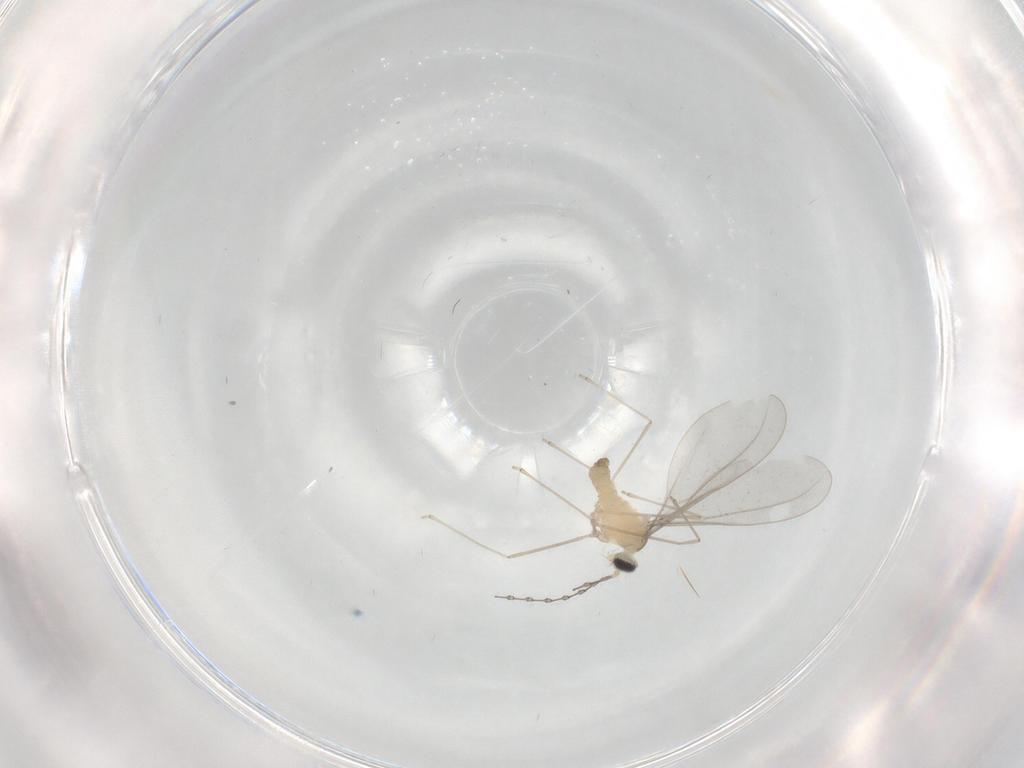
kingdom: Animalia
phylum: Arthropoda
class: Insecta
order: Diptera
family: Cecidomyiidae
